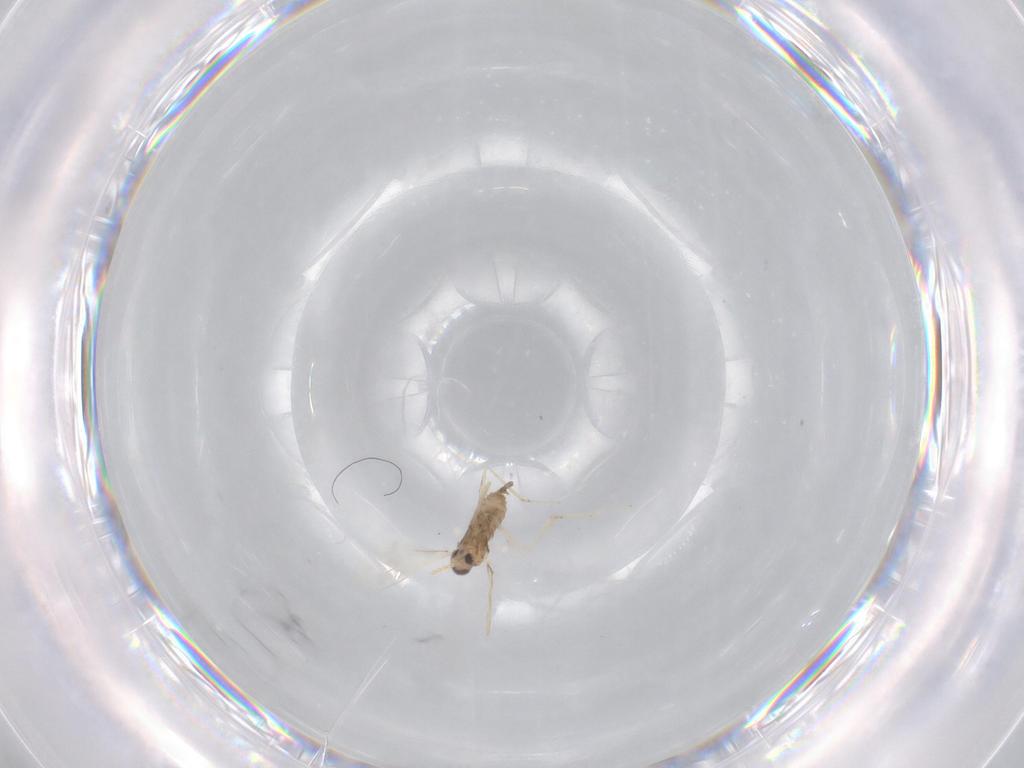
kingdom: Animalia
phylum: Arthropoda
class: Insecta
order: Diptera
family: Cecidomyiidae
